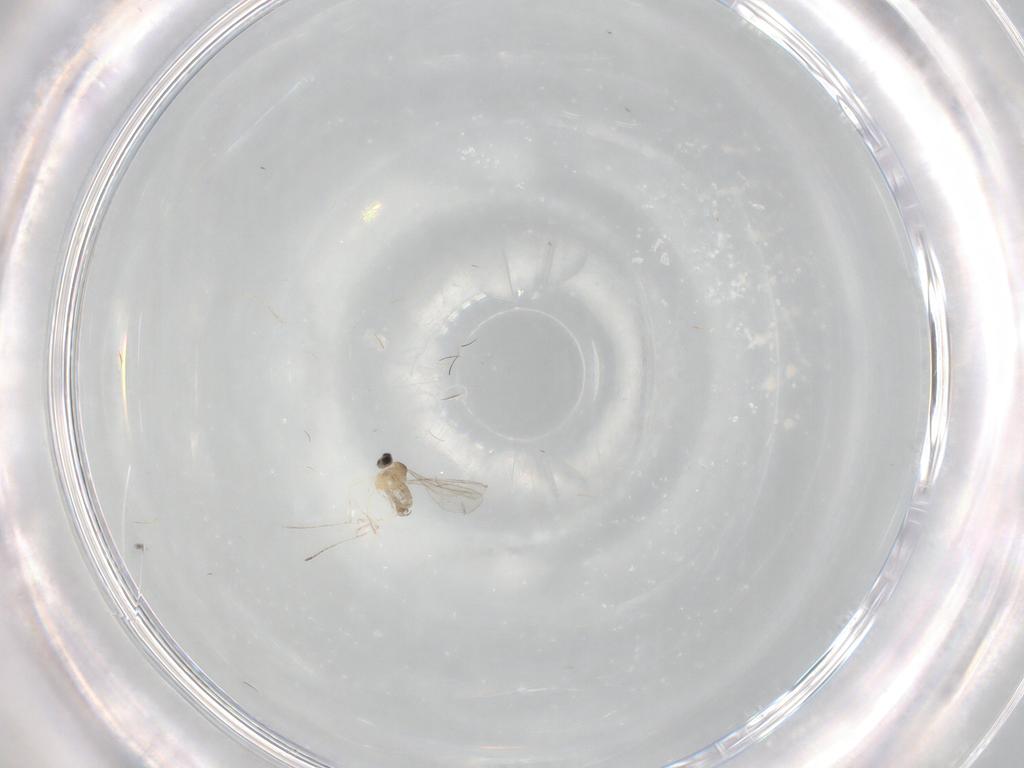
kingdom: Animalia
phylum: Arthropoda
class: Insecta
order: Diptera
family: Cecidomyiidae
